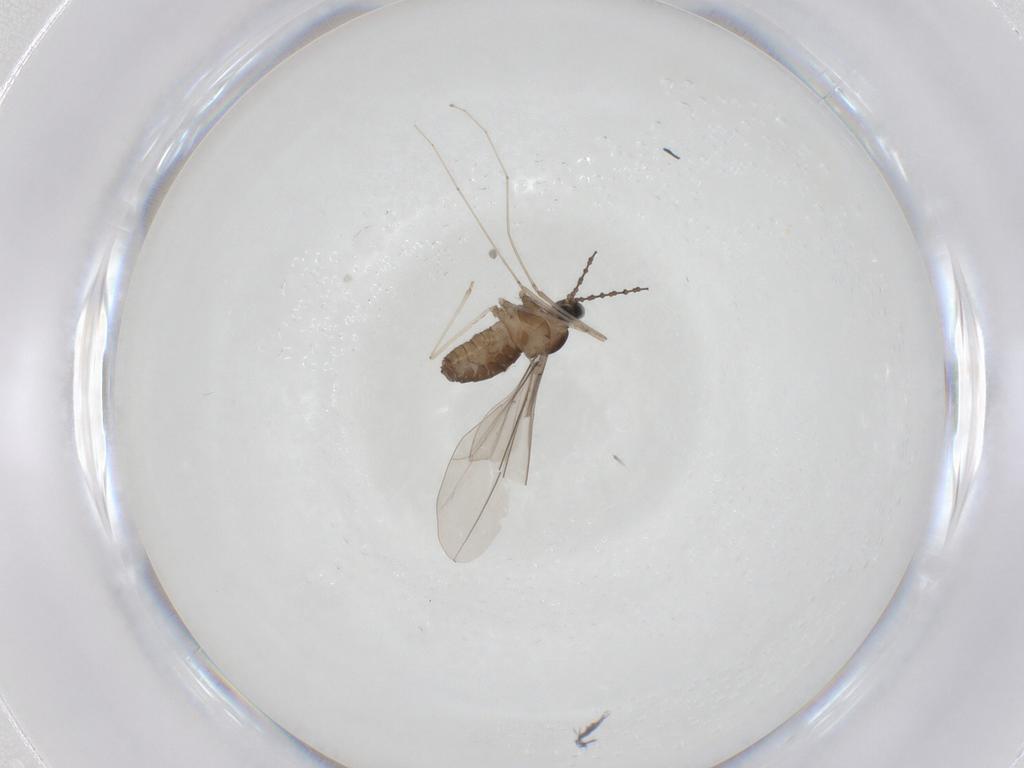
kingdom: Animalia
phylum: Arthropoda
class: Insecta
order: Diptera
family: Cecidomyiidae
